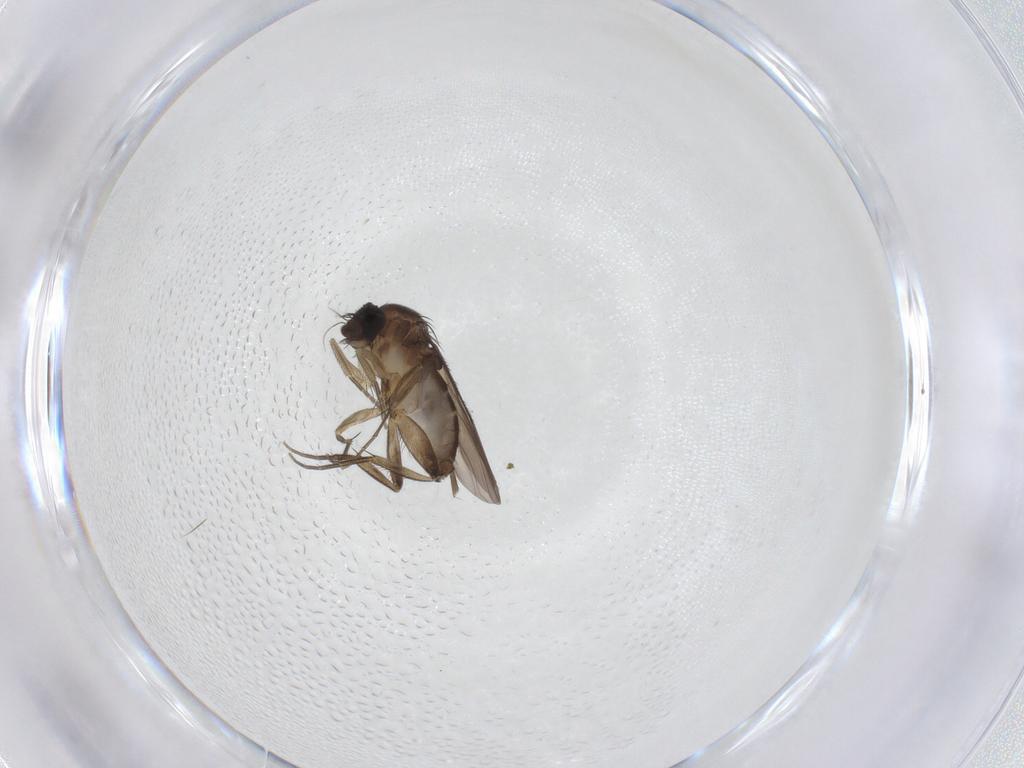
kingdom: Animalia
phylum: Arthropoda
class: Insecta
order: Diptera
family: Phoridae
